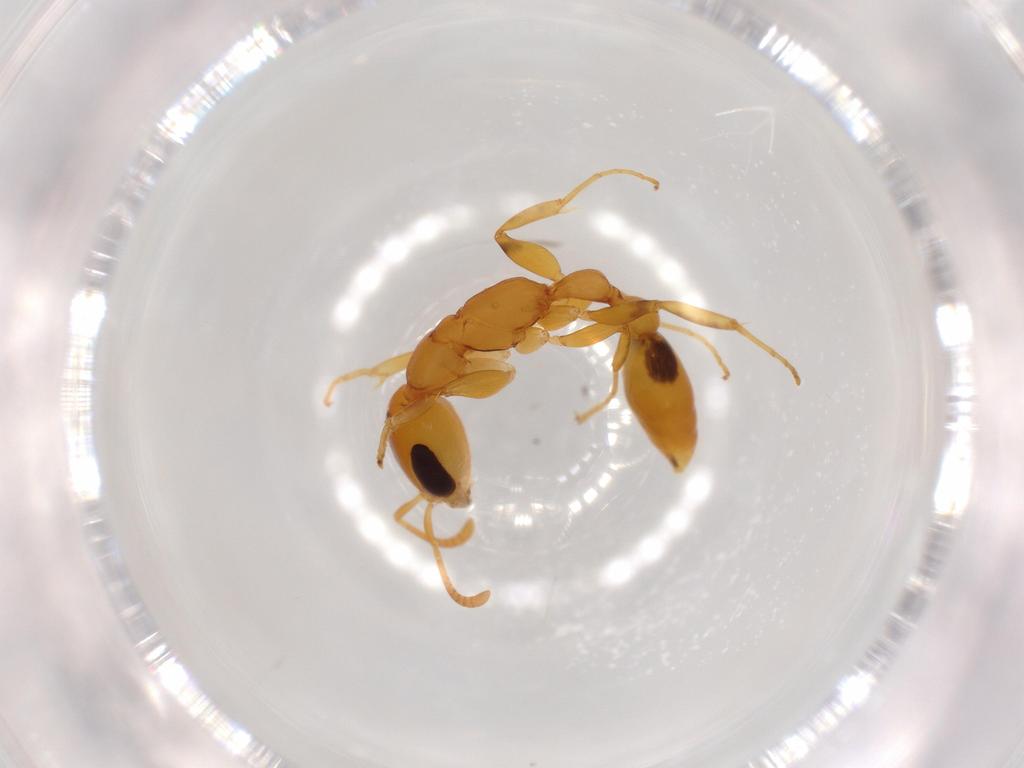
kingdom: Animalia
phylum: Arthropoda
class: Insecta
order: Hymenoptera
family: Formicidae
